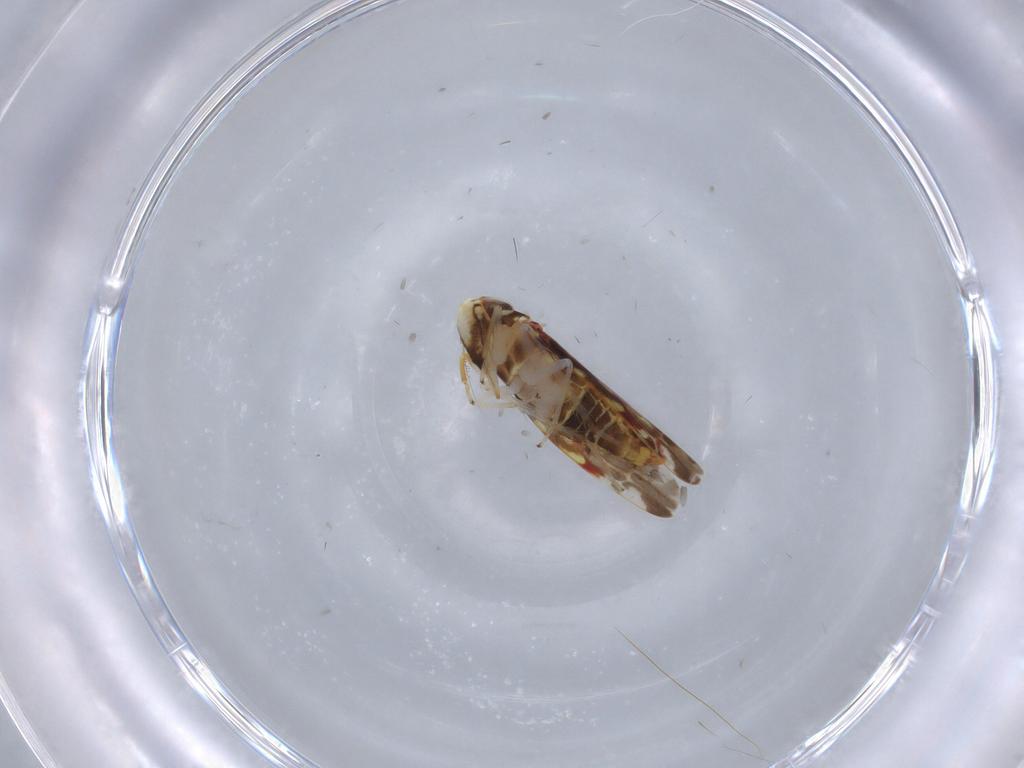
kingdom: Animalia
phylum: Arthropoda
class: Insecta
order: Hemiptera
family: Cicadellidae
